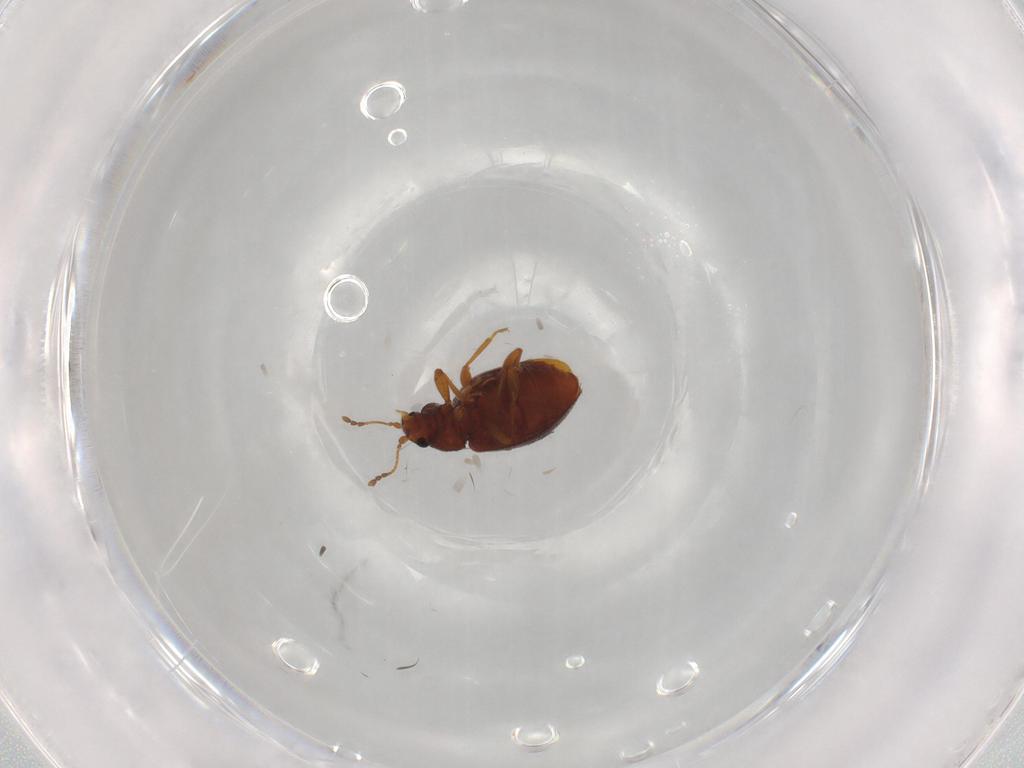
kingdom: Animalia
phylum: Arthropoda
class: Insecta
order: Coleoptera
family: Latridiidae
